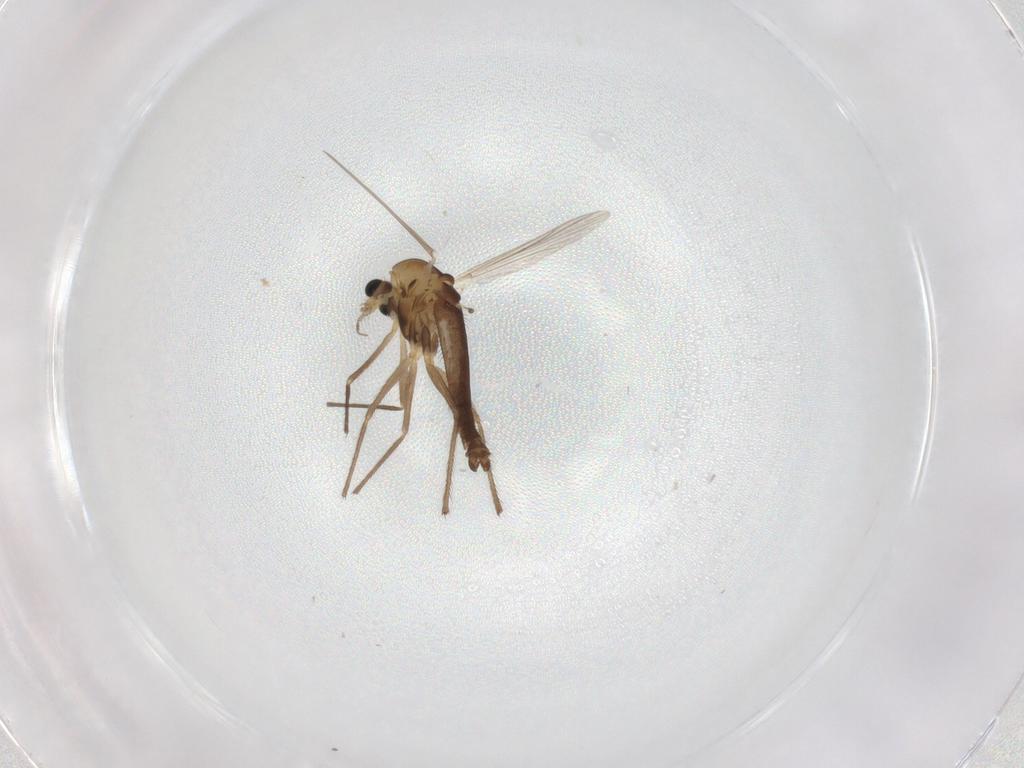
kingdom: Animalia
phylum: Arthropoda
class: Insecta
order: Diptera
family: Chironomidae
